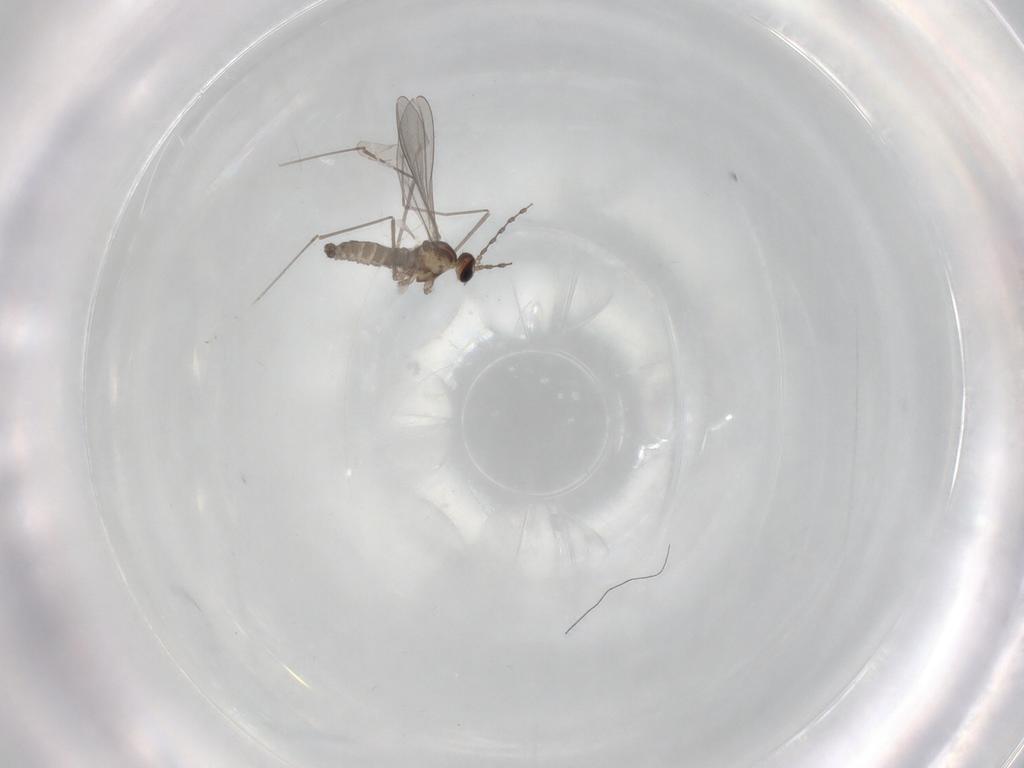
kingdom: Animalia
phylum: Arthropoda
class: Insecta
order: Diptera
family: Cecidomyiidae
